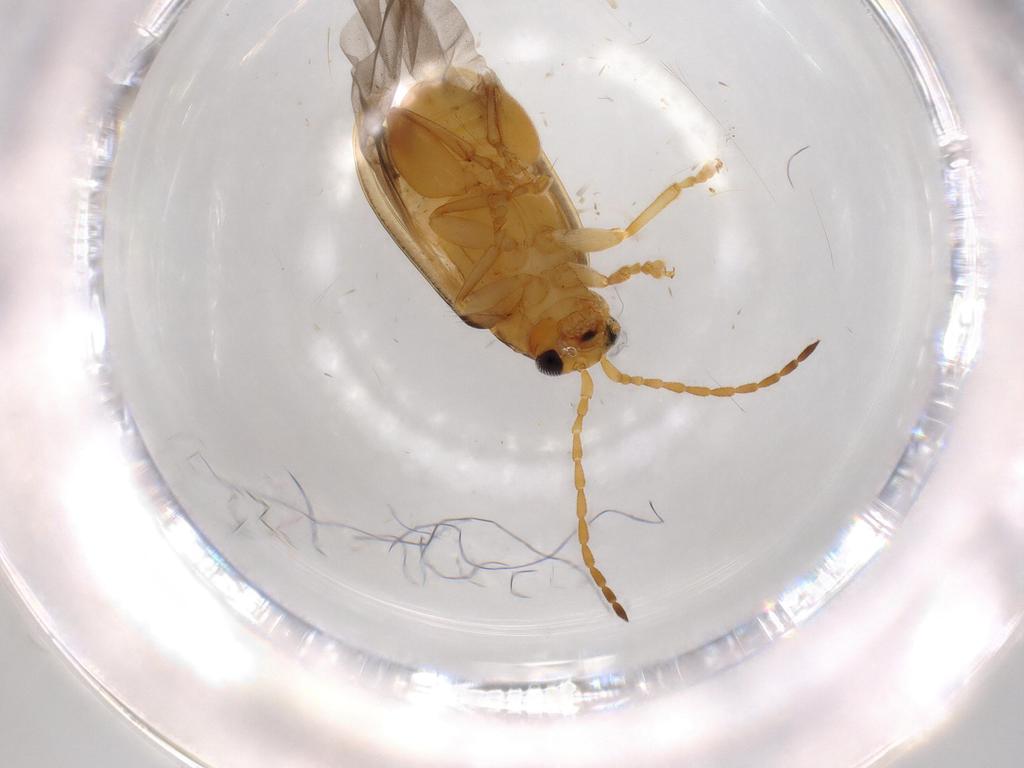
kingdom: Animalia
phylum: Arthropoda
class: Insecta
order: Coleoptera
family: Chrysomelidae
